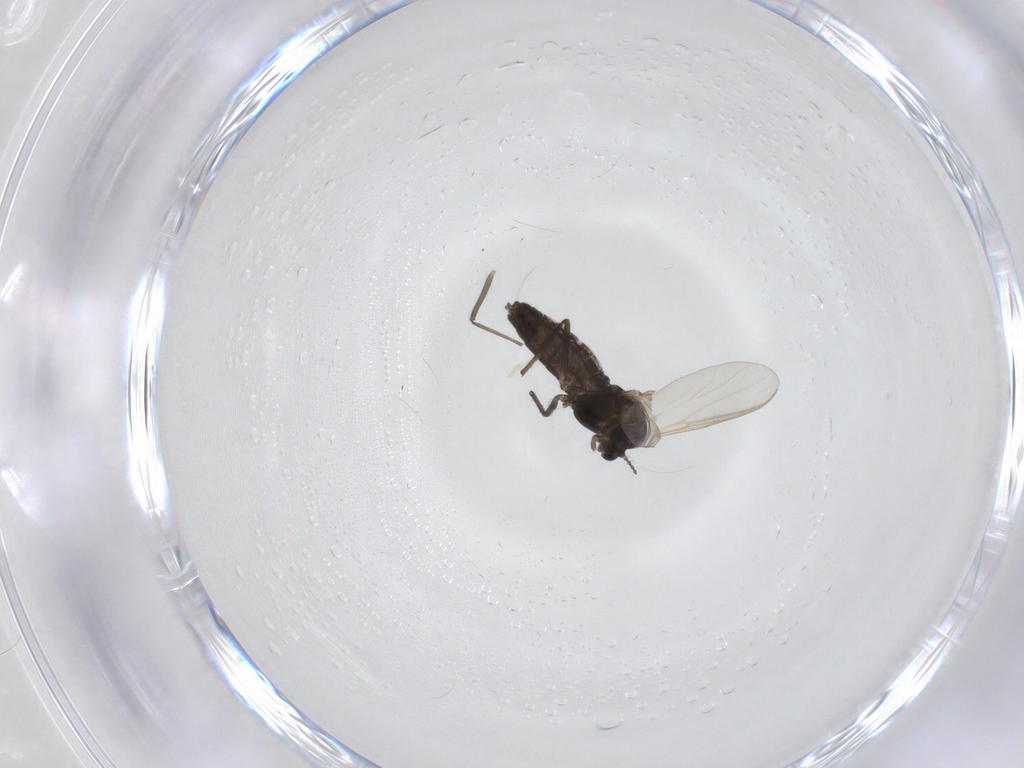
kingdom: Animalia
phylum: Arthropoda
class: Insecta
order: Diptera
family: Chironomidae
